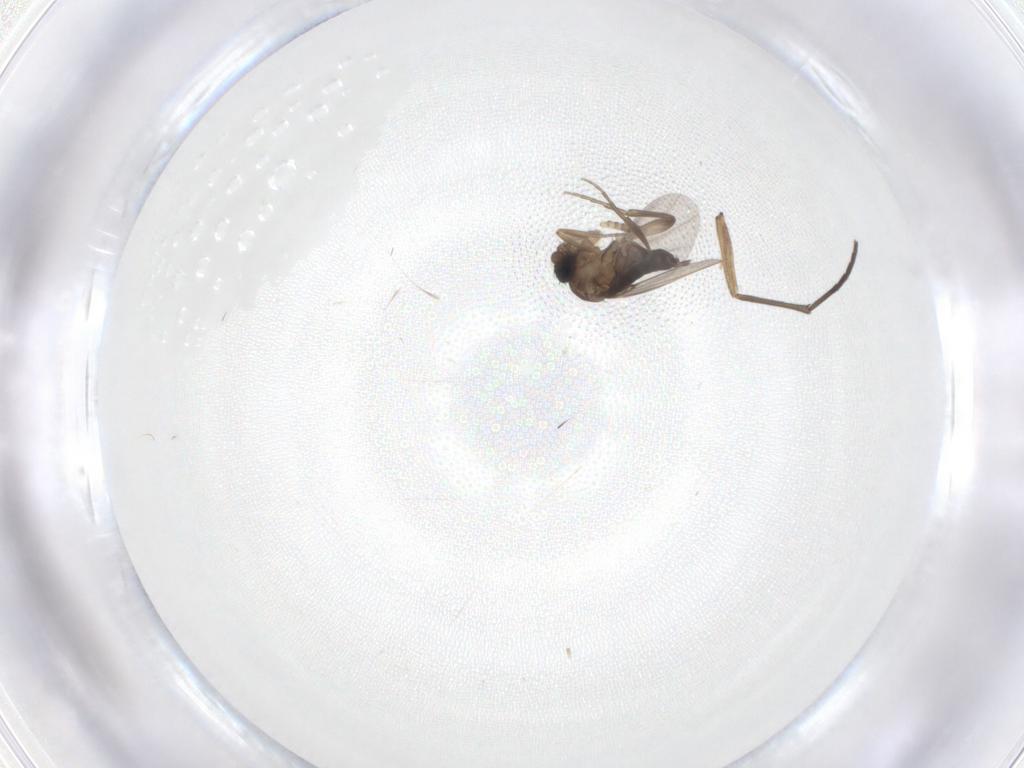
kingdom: Animalia
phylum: Arthropoda
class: Insecta
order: Diptera
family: Phoridae
